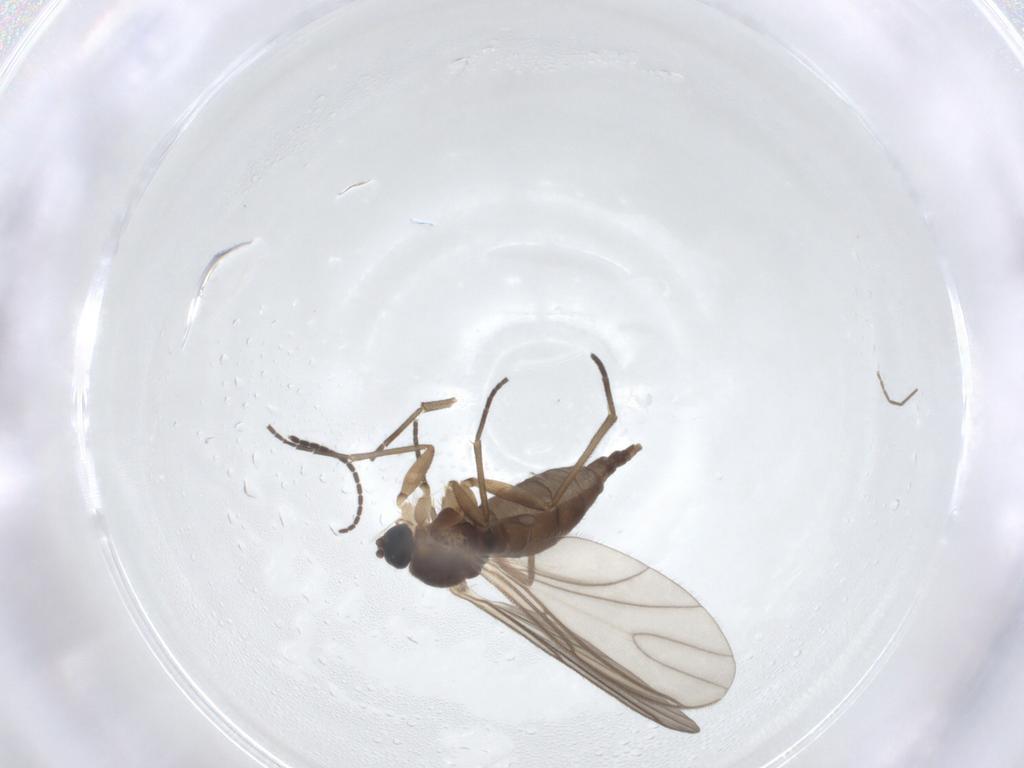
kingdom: Animalia
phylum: Arthropoda
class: Insecta
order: Diptera
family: Sciaridae
